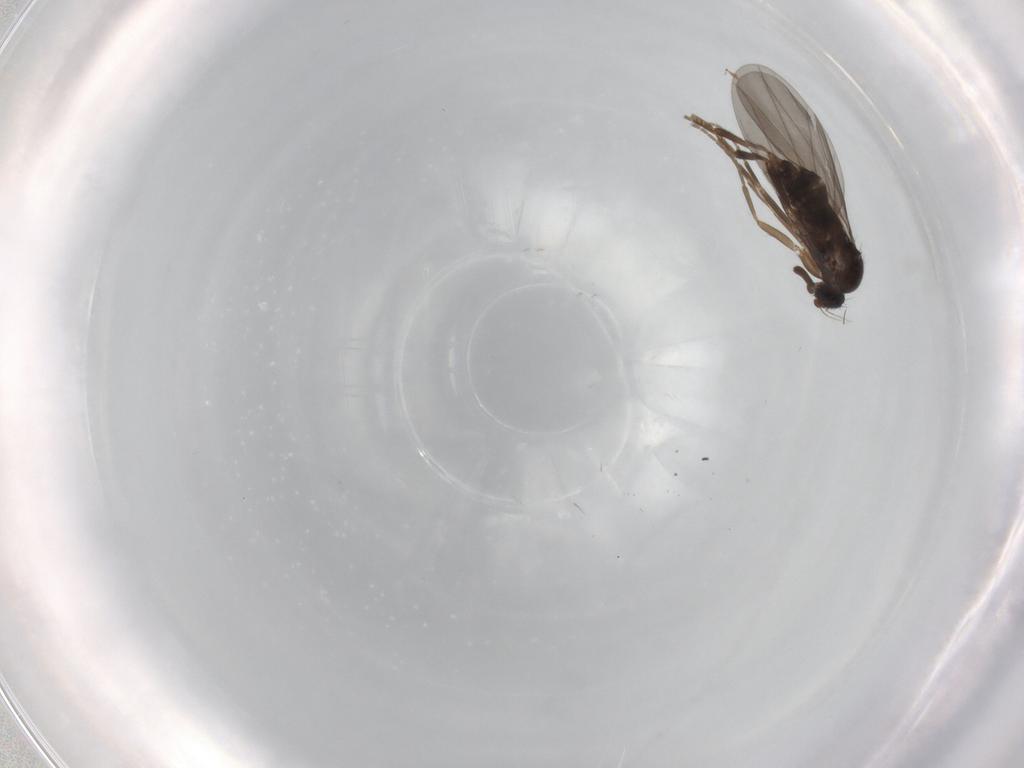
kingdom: Animalia
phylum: Arthropoda
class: Insecta
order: Diptera
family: Phoridae
